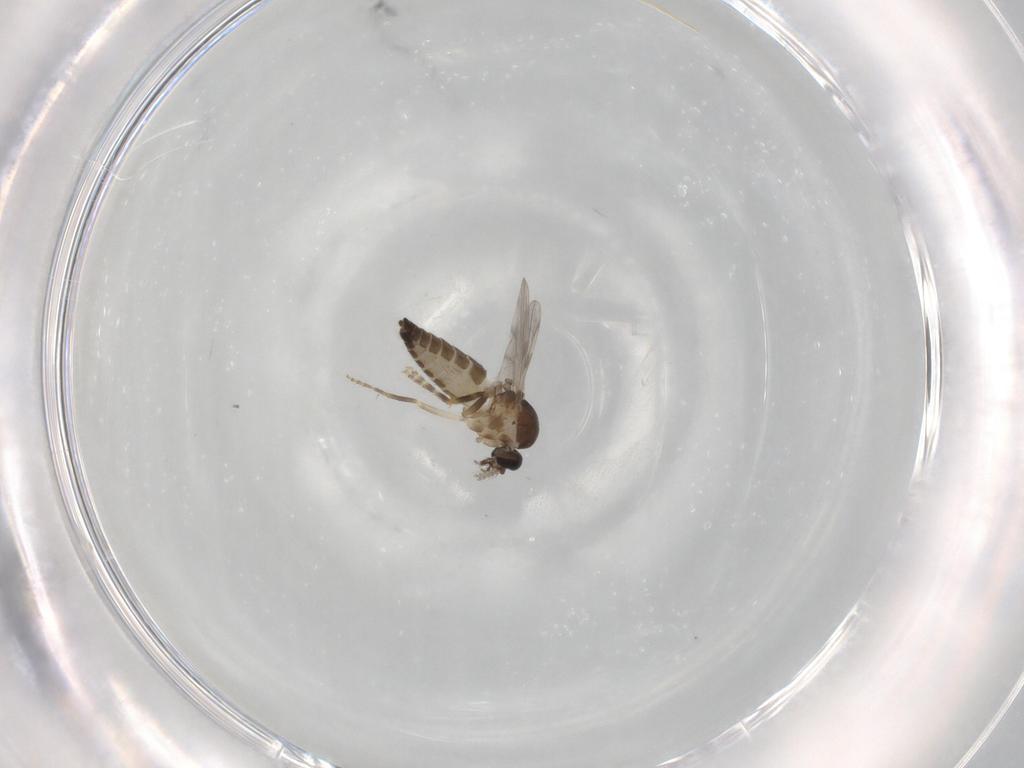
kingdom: Animalia
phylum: Arthropoda
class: Insecta
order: Diptera
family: Ceratopogonidae
